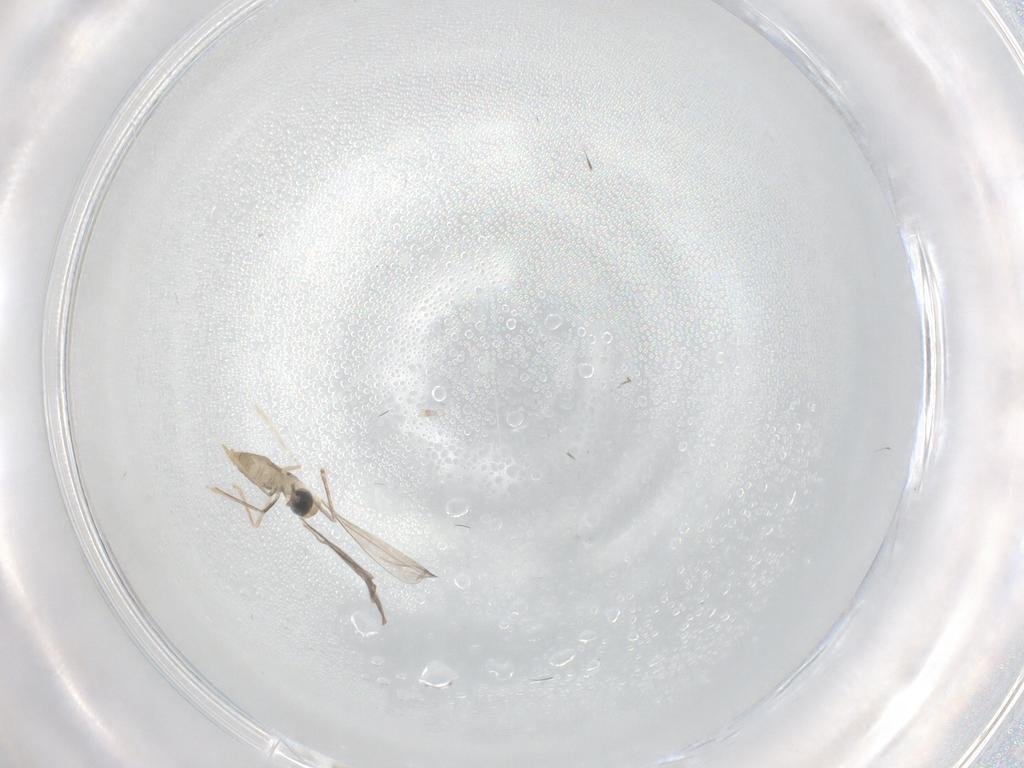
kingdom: Animalia
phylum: Arthropoda
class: Insecta
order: Diptera
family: Cecidomyiidae
